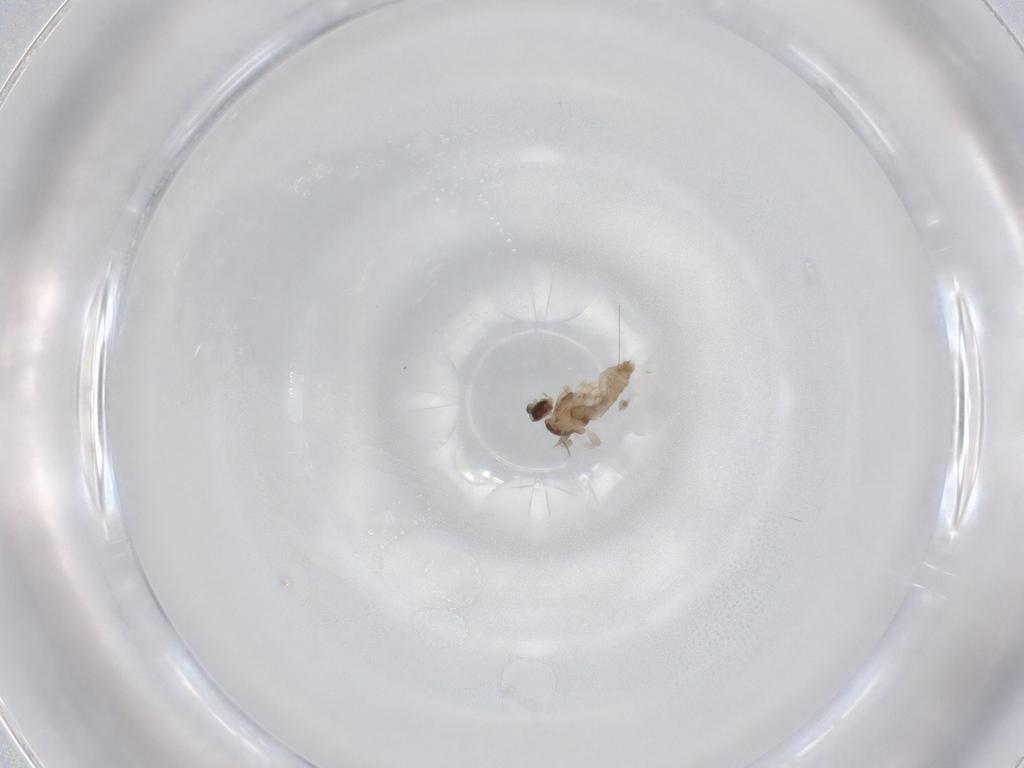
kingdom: Animalia
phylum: Arthropoda
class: Insecta
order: Diptera
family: Cecidomyiidae
